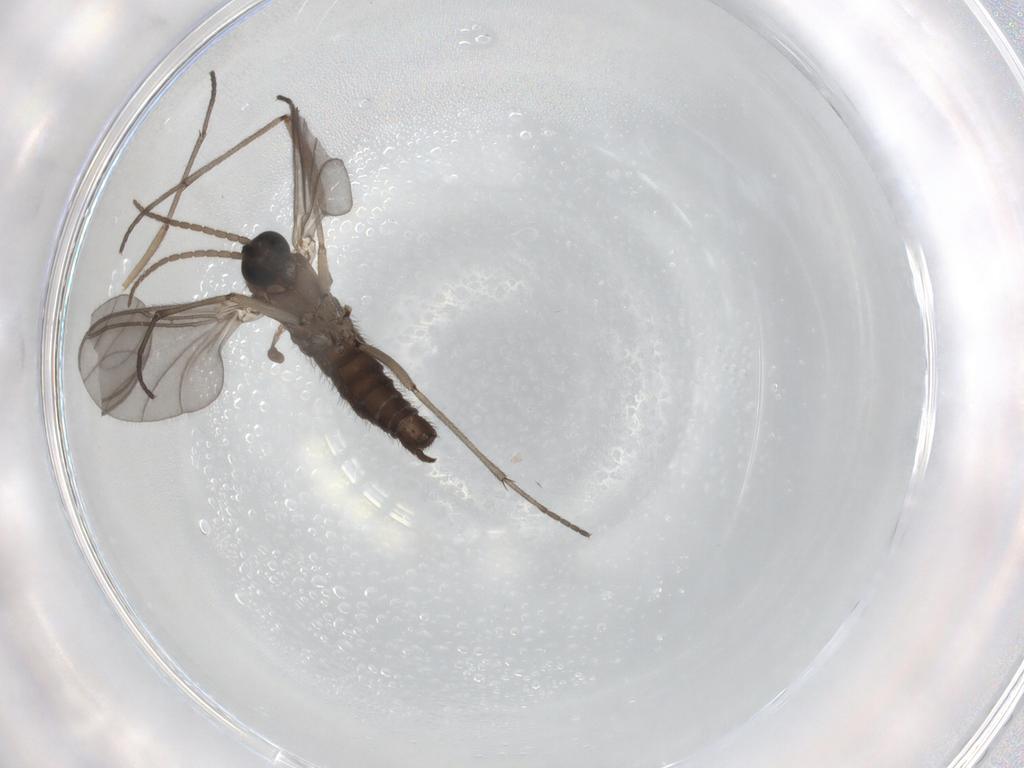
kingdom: Animalia
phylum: Arthropoda
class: Insecta
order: Diptera
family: Sciaridae
